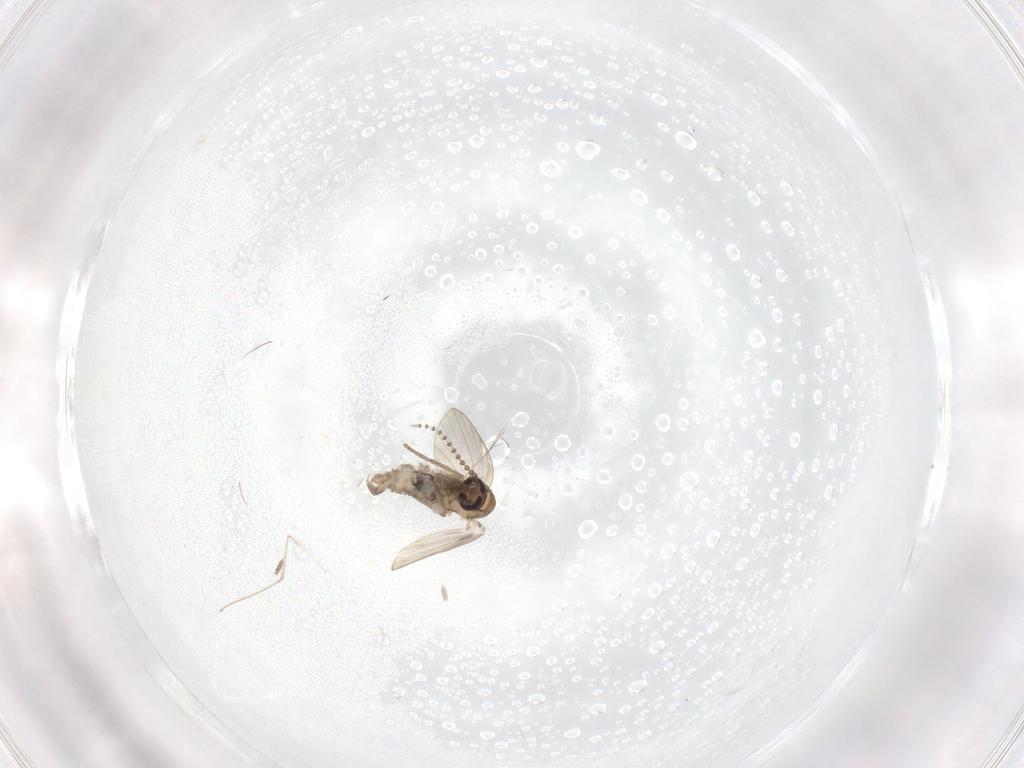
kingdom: Animalia
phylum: Arthropoda
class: Insecta
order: Diptera
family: Psychodidae
